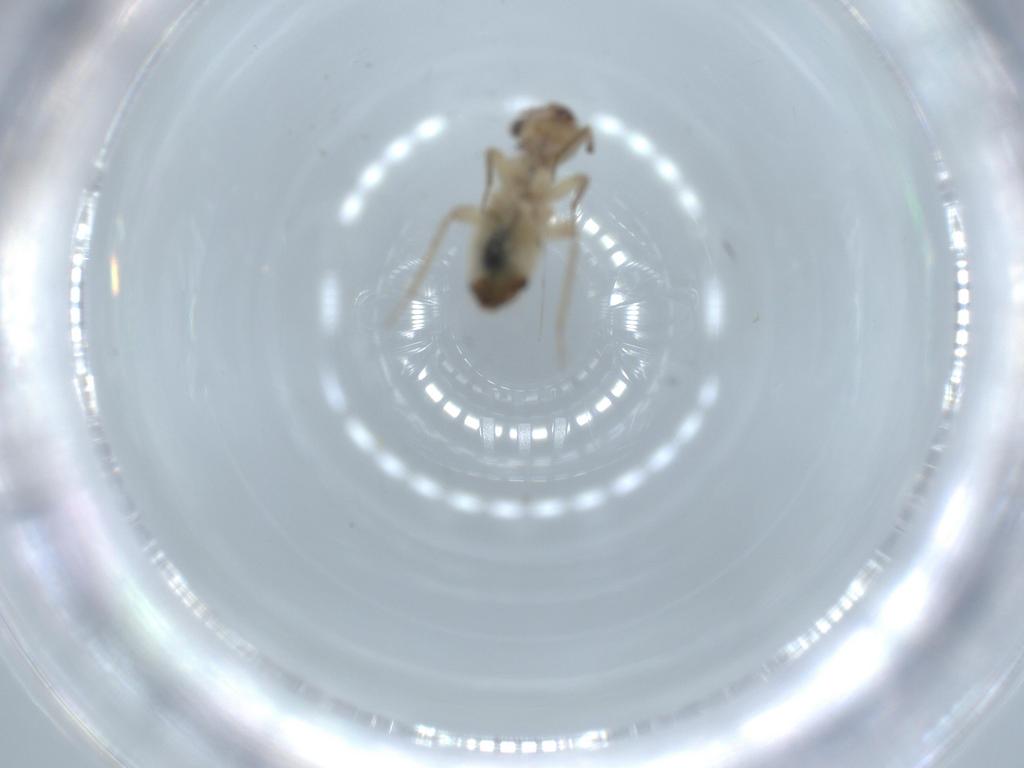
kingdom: Animalia
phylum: Arthropoda
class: Insecta
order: Psocodea
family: Lepidopsocidae
